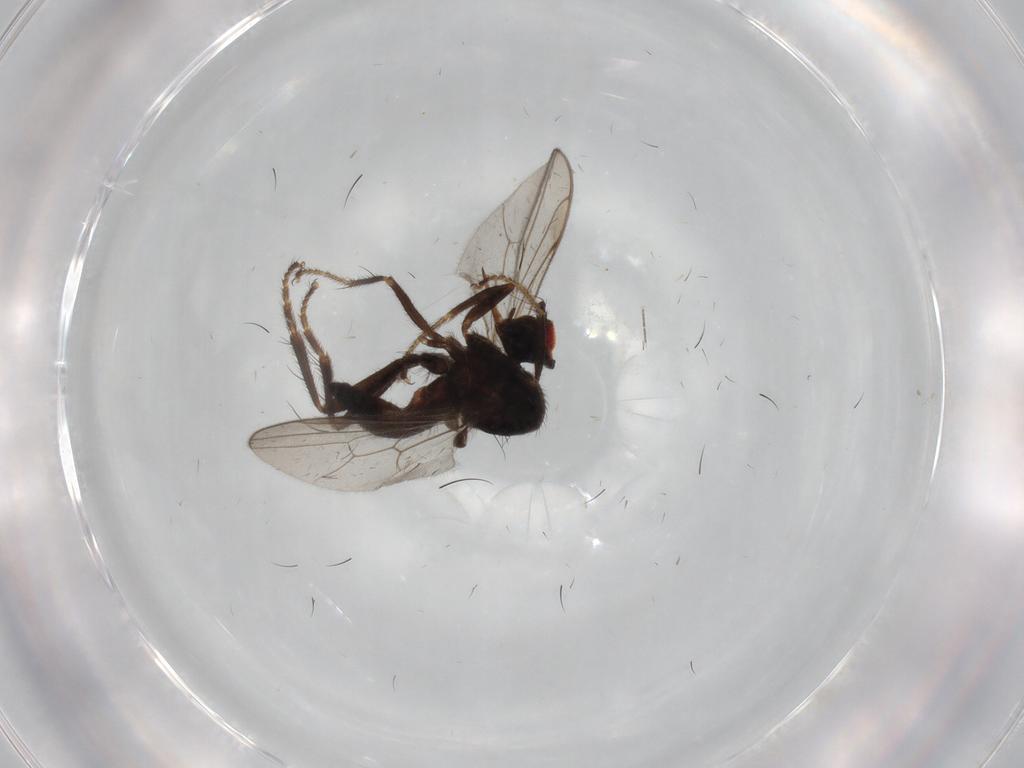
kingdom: Animalia
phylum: Arthropoda
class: Insecta
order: Diptera
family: Hybotidae
